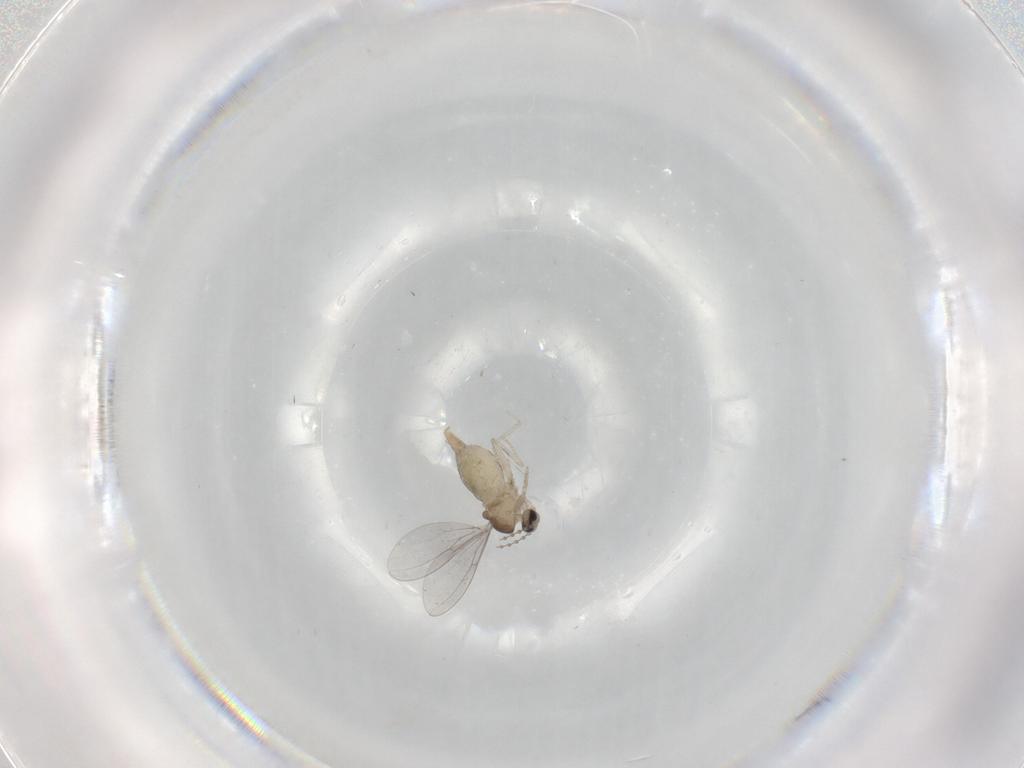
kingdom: Animalia
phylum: Arthropoda
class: Insecta
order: Diptera
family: Cecidomyiidae
